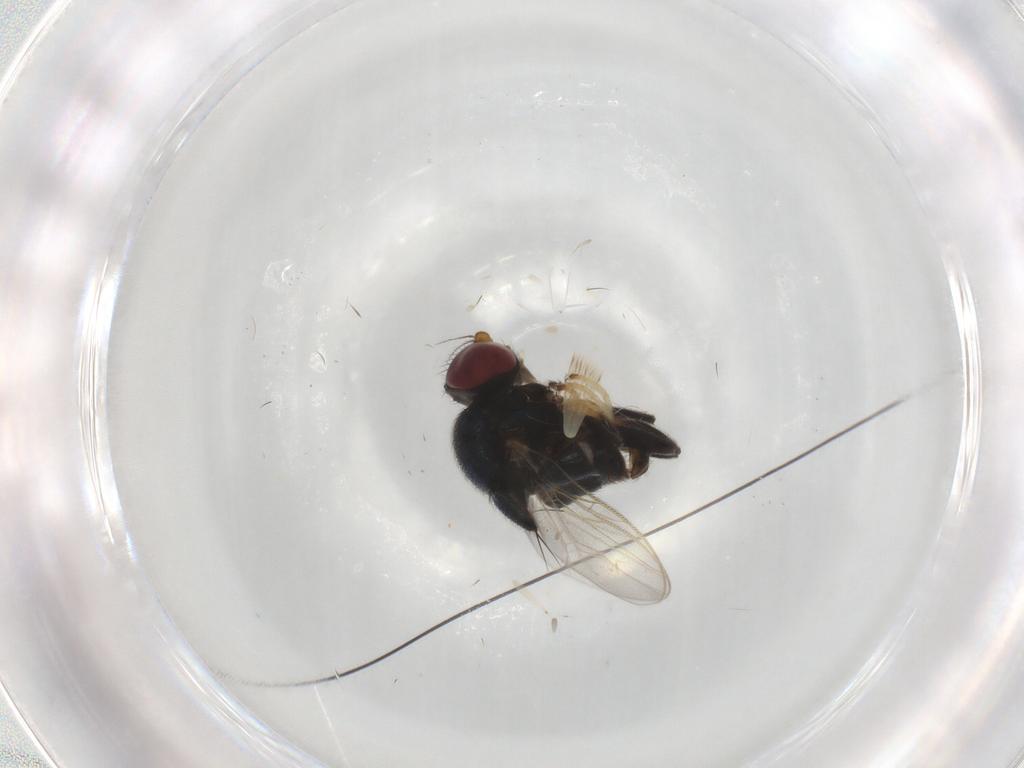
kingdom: Animalia
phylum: Arthropoda
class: Insecta
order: Diptera
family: Chloropidae
